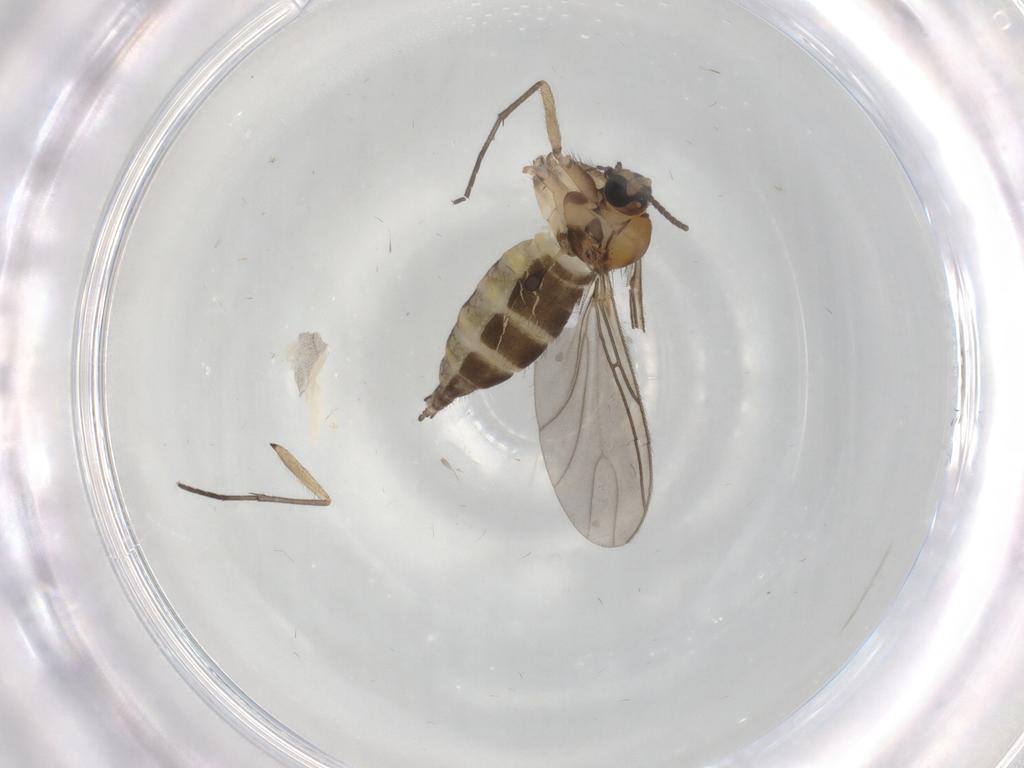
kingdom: Animalia
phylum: Arthropoda
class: Insecta
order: Diptera
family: Sciaridae
